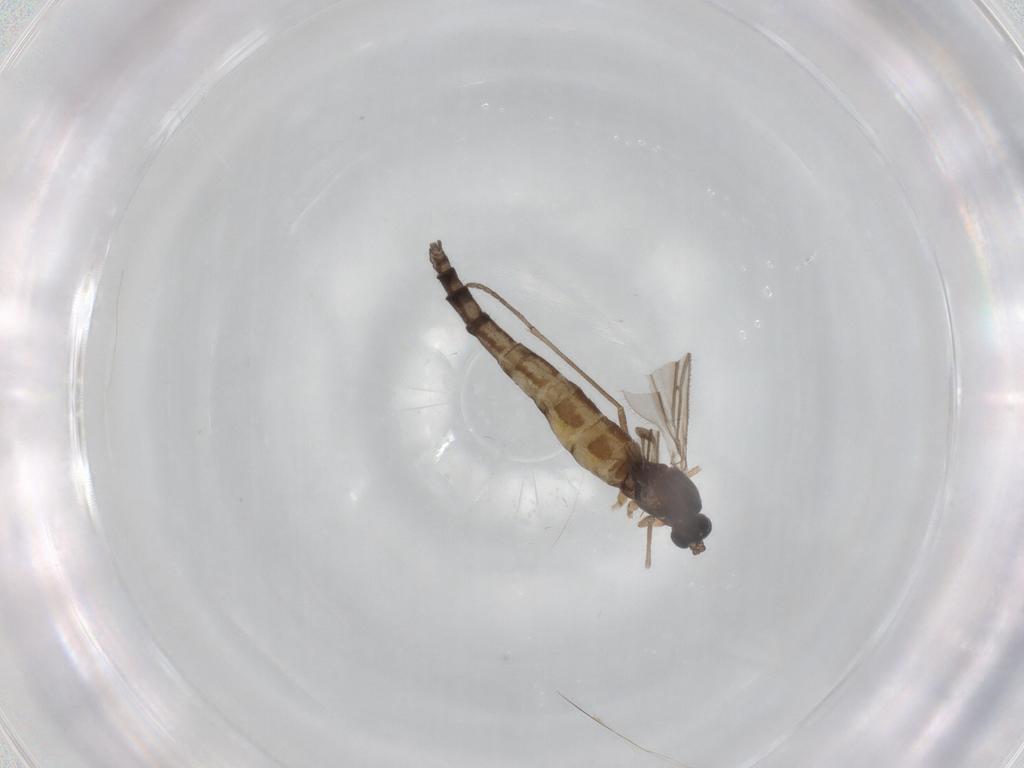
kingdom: Animalia
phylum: Arthropoda
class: Insecta
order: Diptera
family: Sciaridae
